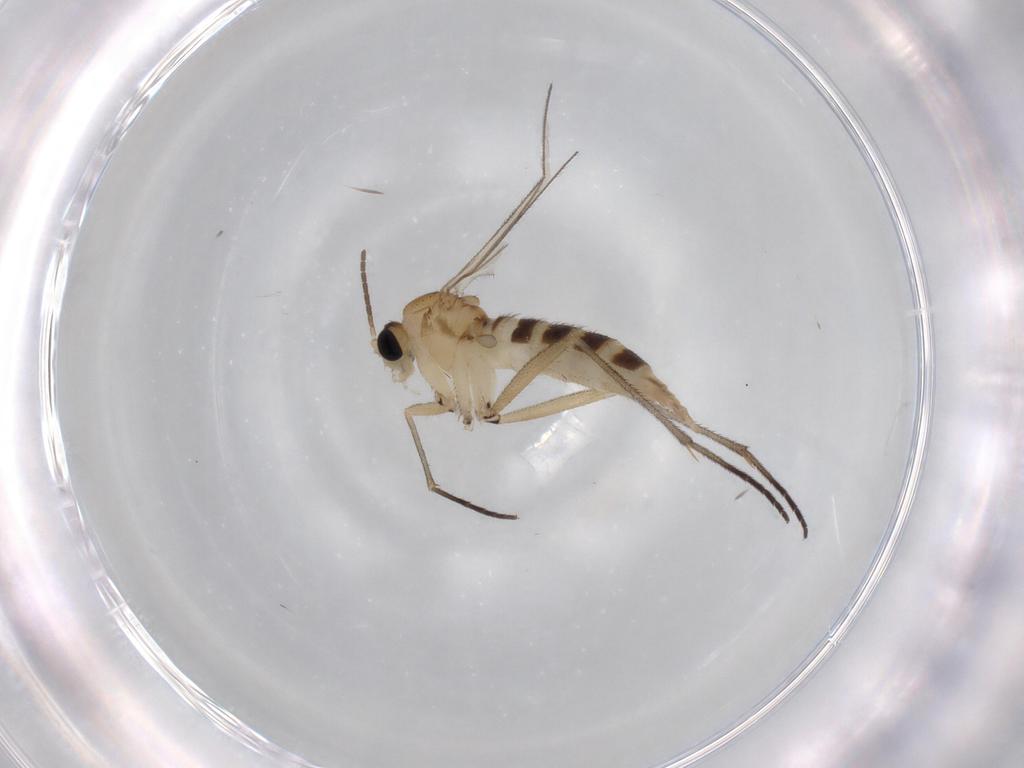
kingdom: Animalia
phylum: Arthropoda
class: Insecta
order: Diptera
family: Sciaridae
